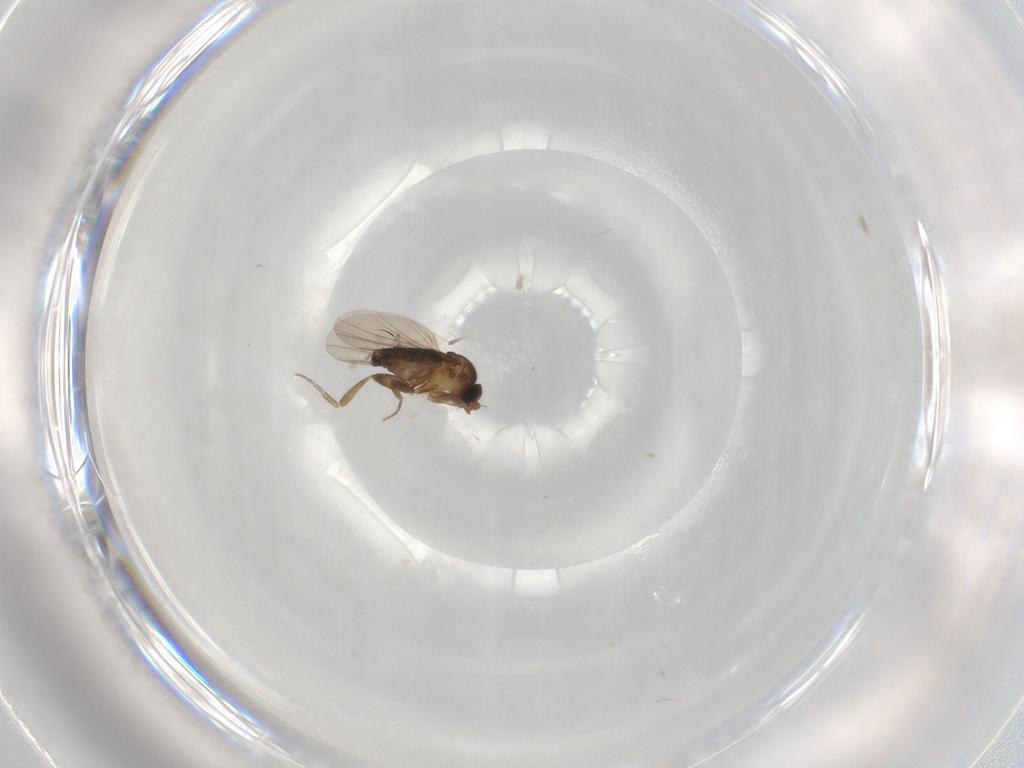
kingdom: Animalia
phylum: Arthropoda
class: Insecta
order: Diptera
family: Phoridae
